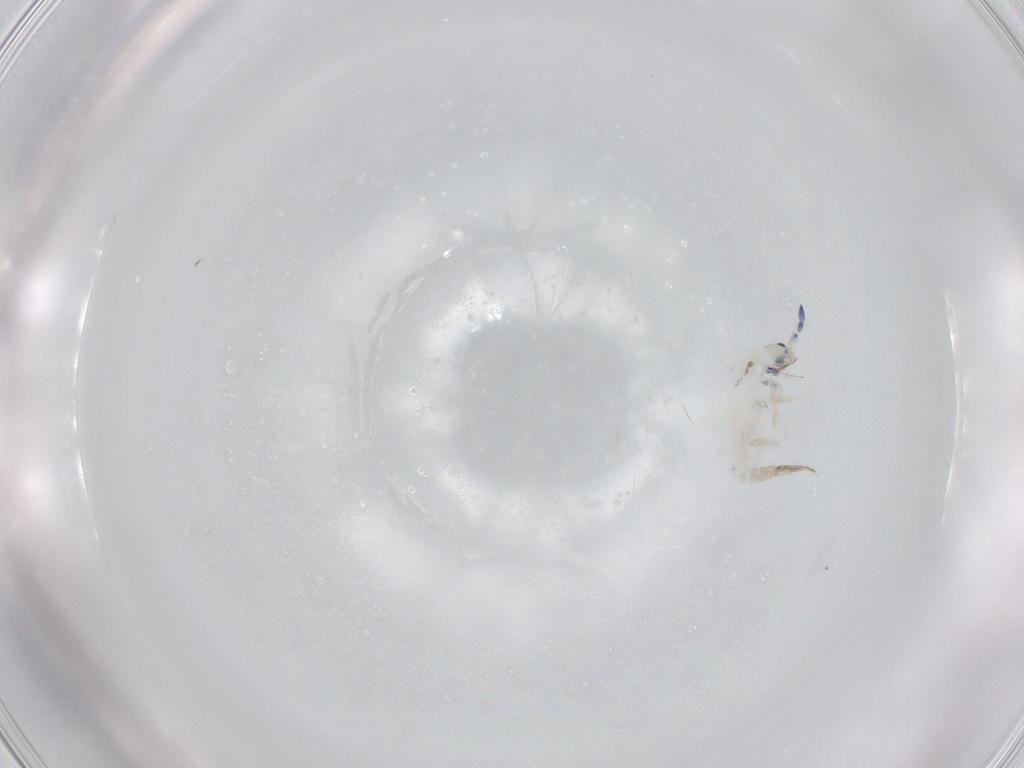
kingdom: Animalia
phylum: Arthropoda
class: Collembola
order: Entomobryomorpha
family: Entomobryidae
